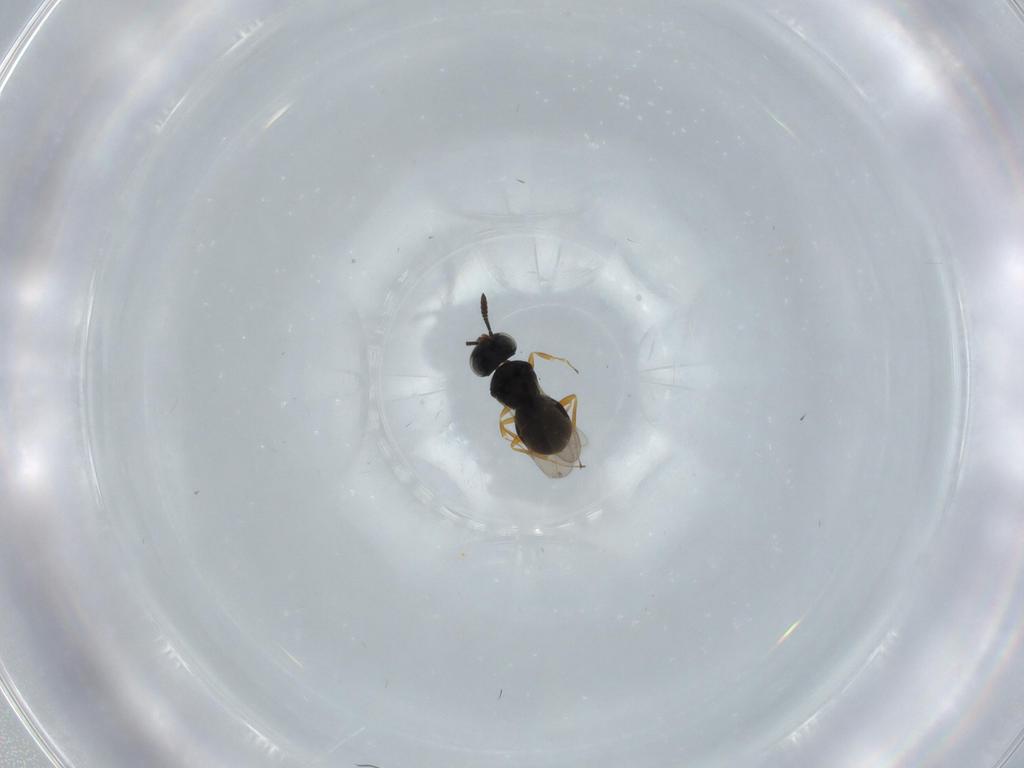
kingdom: Animalia
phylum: Arthropoda
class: Insecta
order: Hymenoptera
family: Scelionidae
